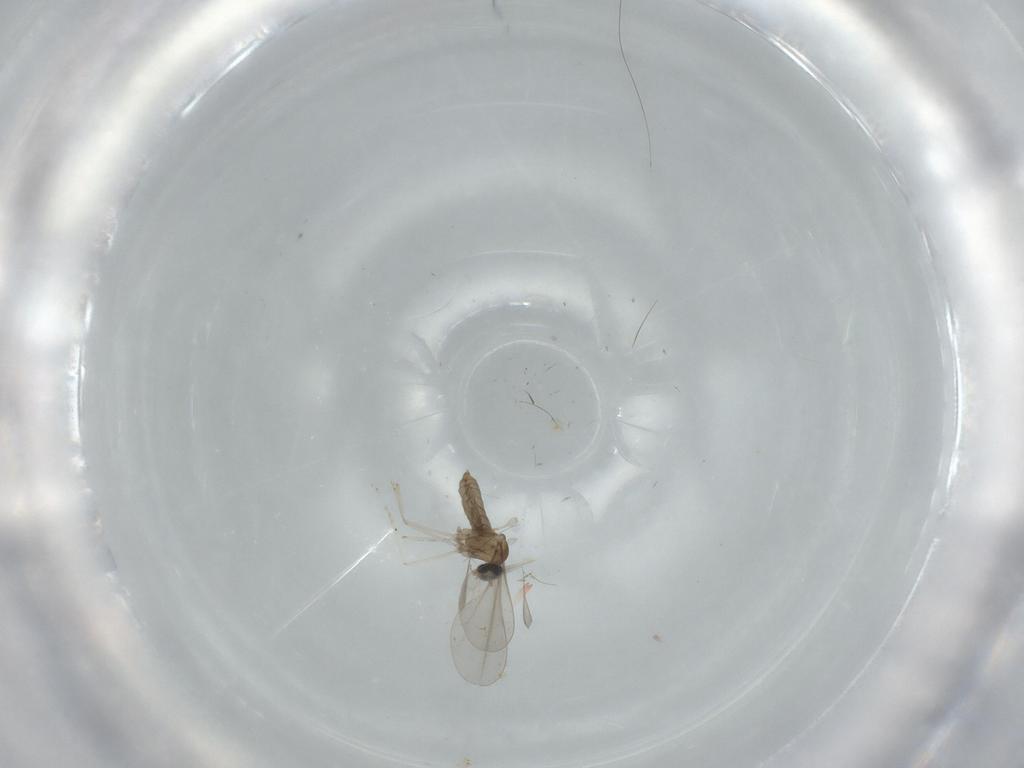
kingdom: Animalia
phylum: Arthropoda
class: Insecta
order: Diptera
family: Cecidomyiidae
